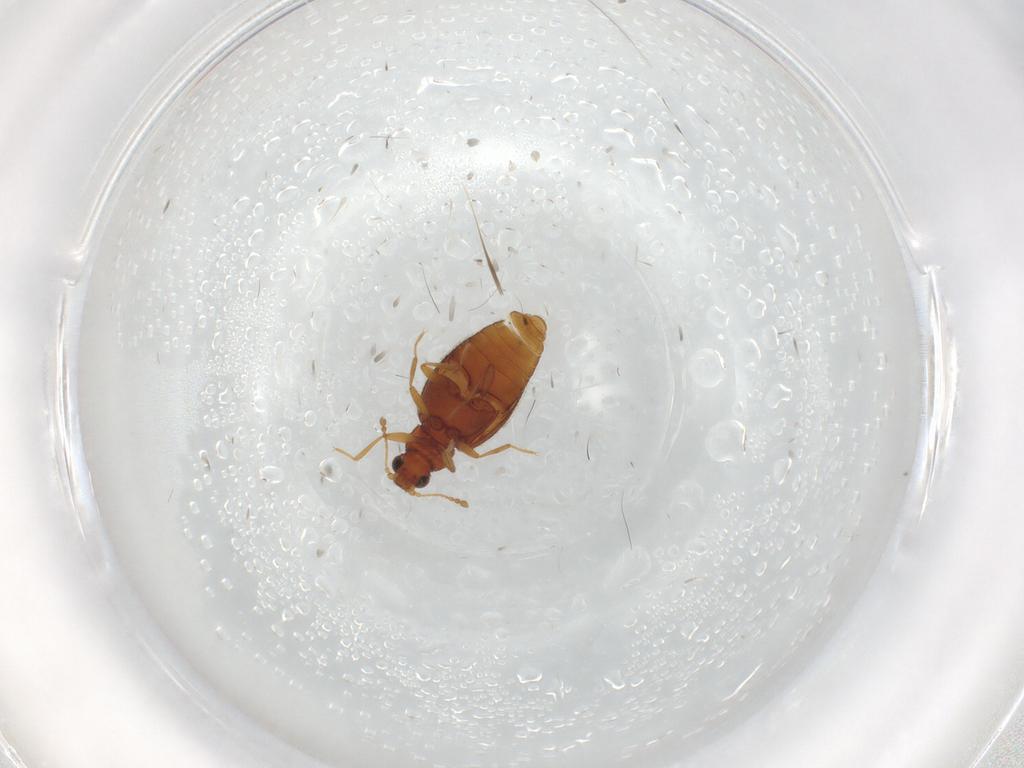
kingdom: Animalia
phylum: Arthropoda
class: Insecta
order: Coleoptera
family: Latridiidae
